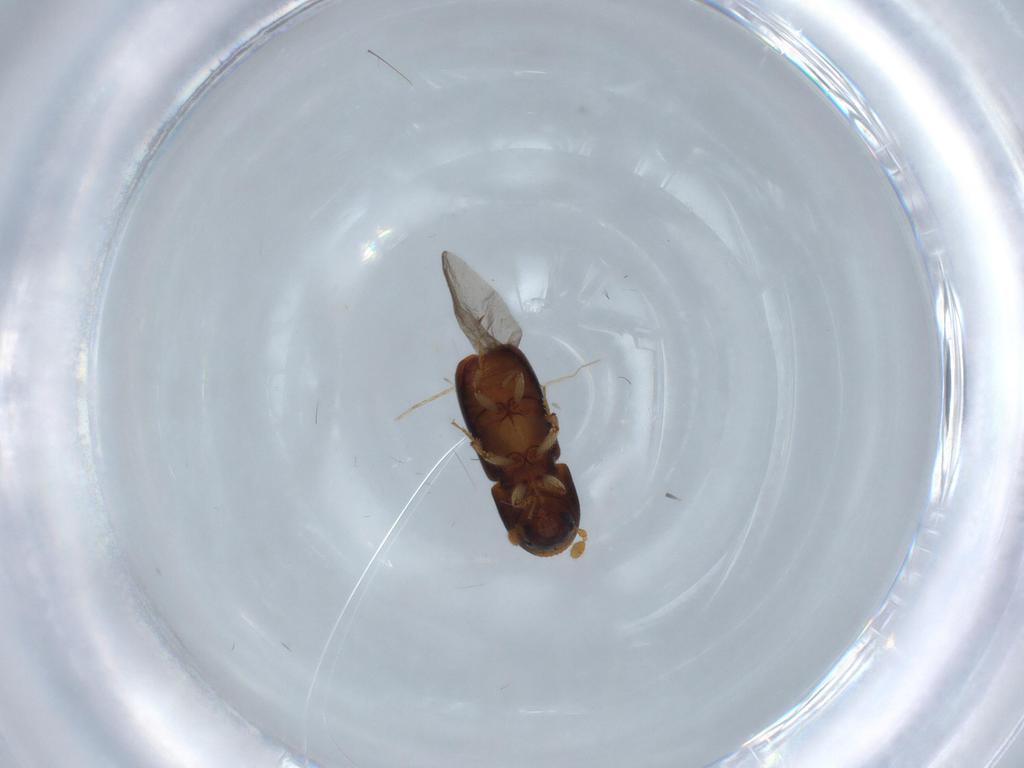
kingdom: Animalia
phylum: Arthropoda
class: Insecta
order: Coleoptera
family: Curculionidae
